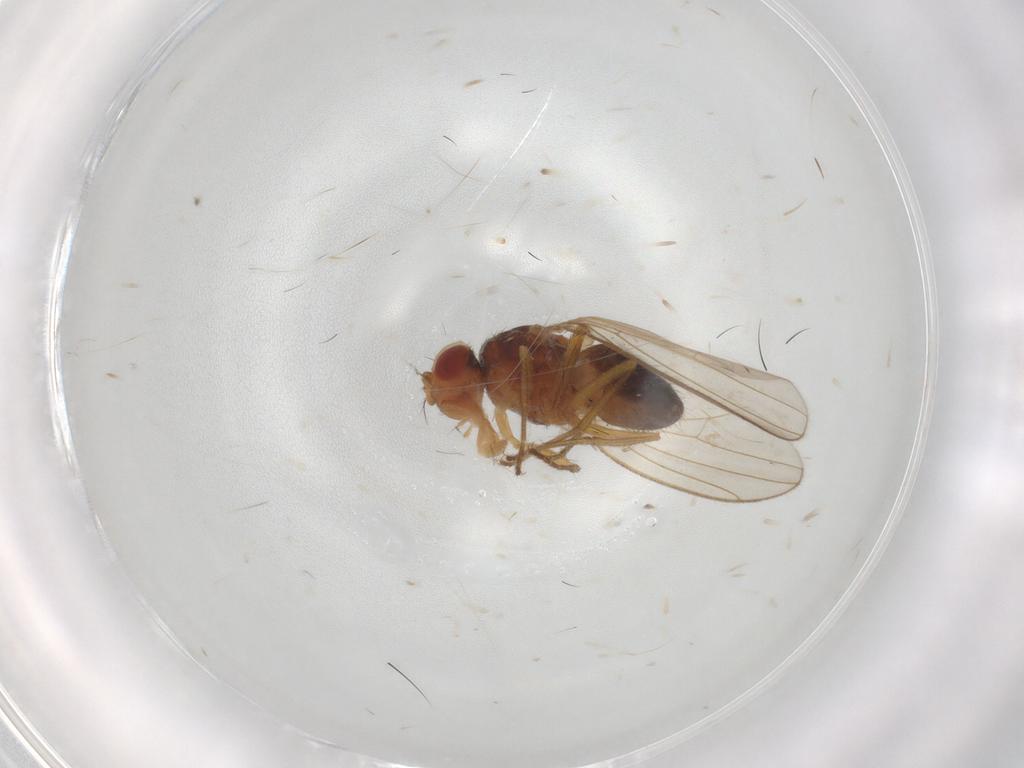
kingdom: Animalia
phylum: Arthropoda
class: Insecta
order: Diptera
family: Drosophilidae
